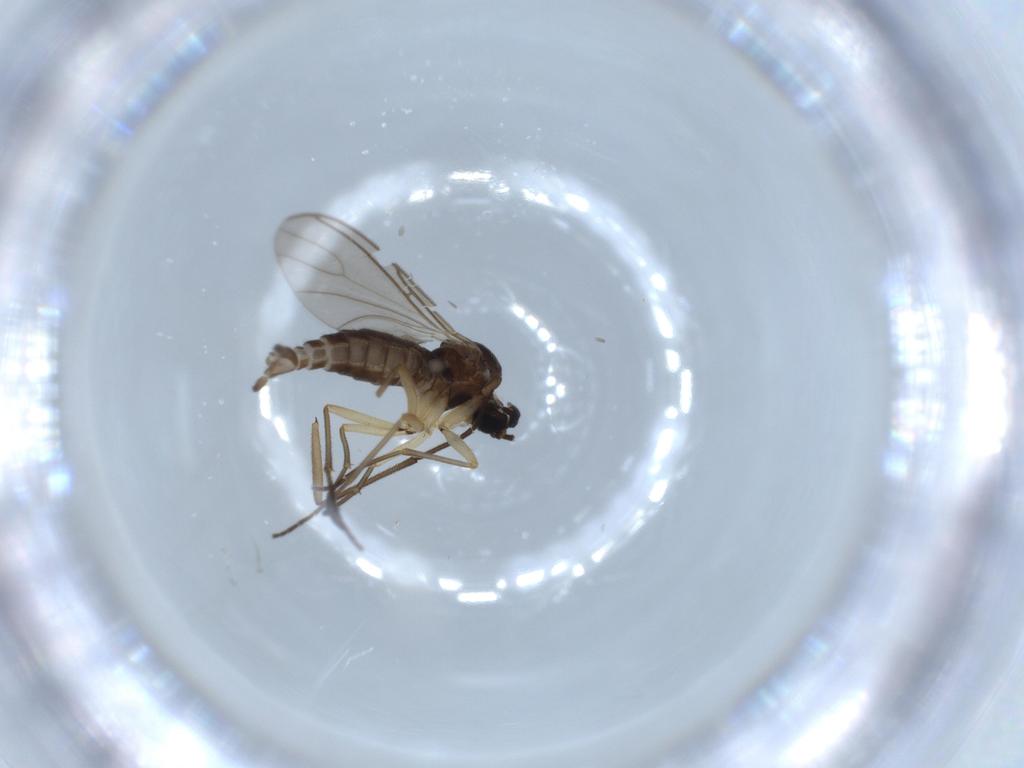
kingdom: Animalia
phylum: Arthropoda
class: Insecta
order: Diptera
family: Sciaridae
